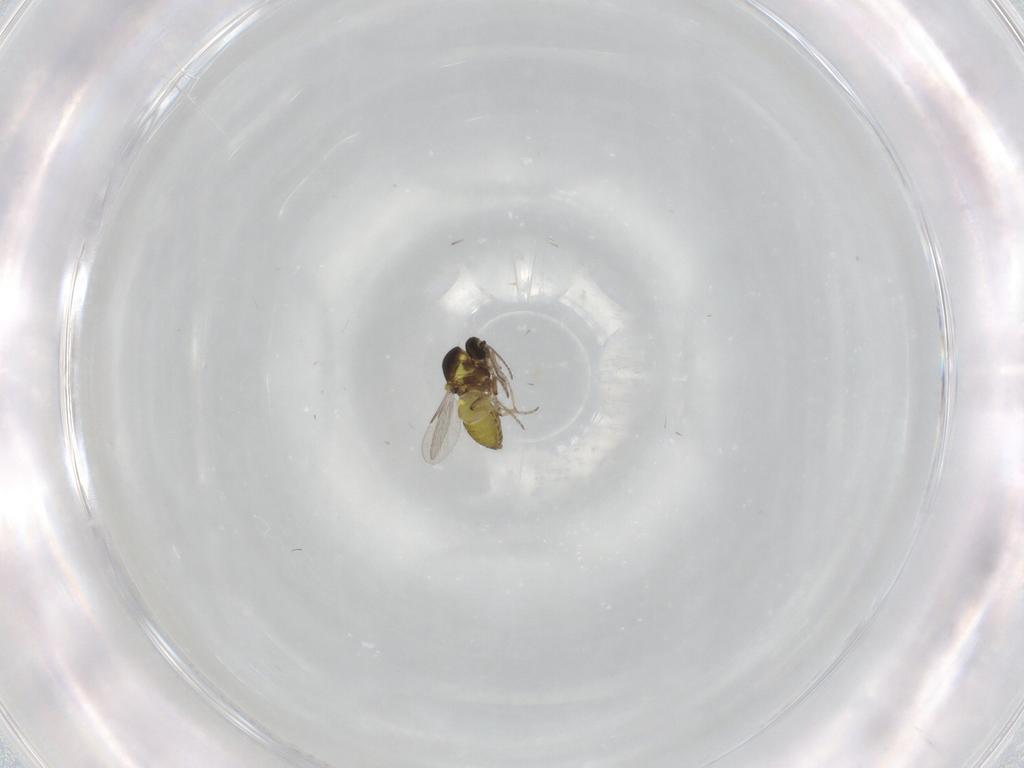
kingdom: Animalia
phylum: Arthropoda
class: Insecta
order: Diptera
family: Ceratopogonidae
